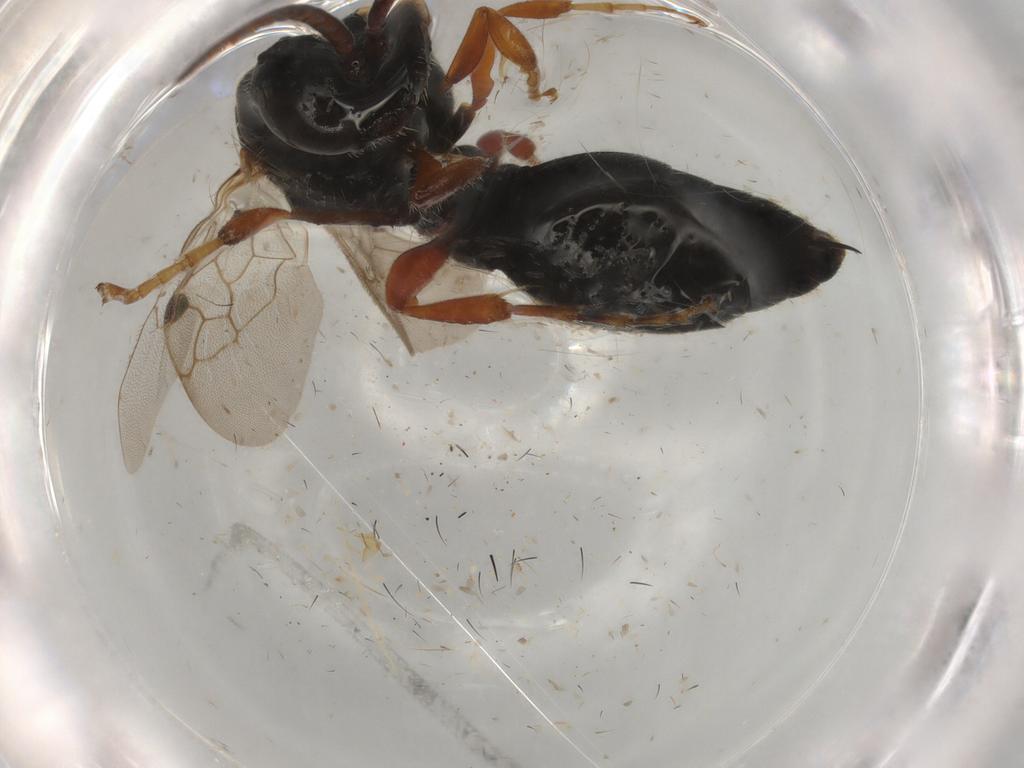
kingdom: Animalia
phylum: Arthropoda
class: Insecta
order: Hymenoptera
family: Tiphiidae
